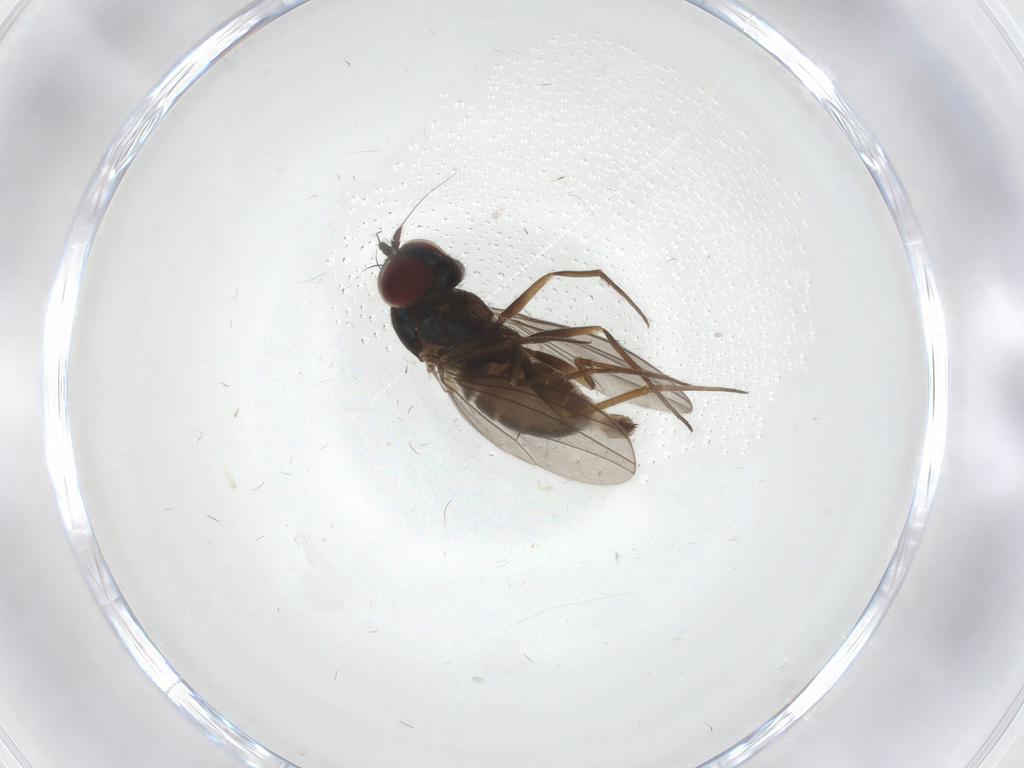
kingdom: Animalia
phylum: Arthropoda
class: Insecta
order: Diptera
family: Dolichopodidae
